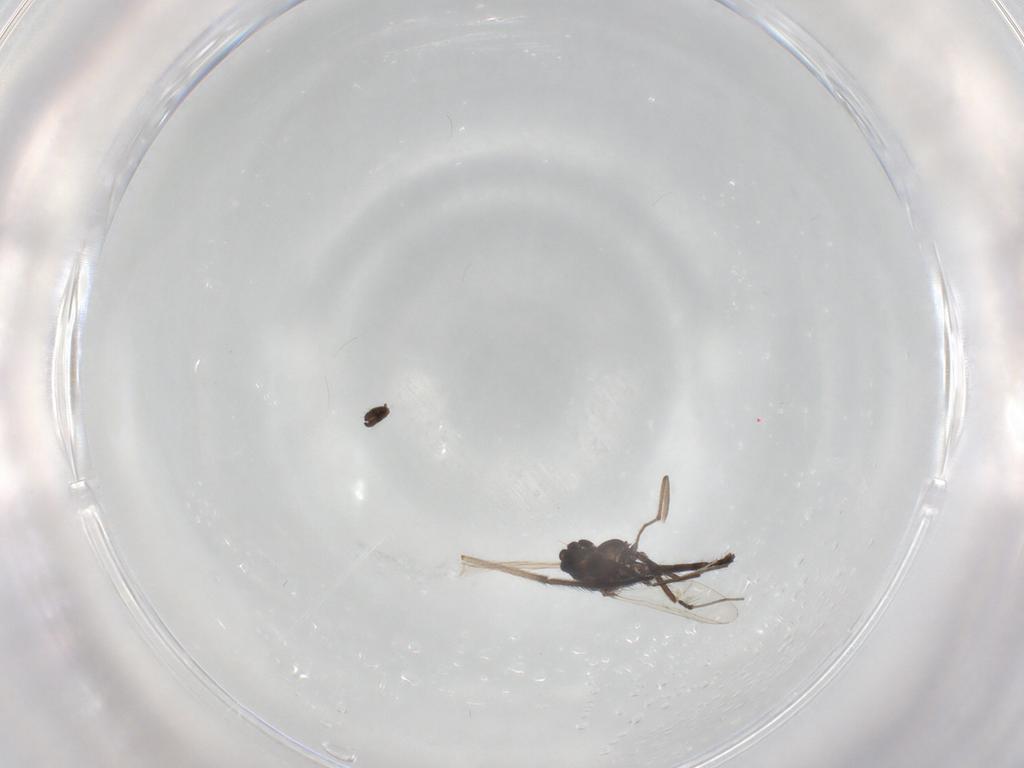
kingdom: Animalia
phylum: Arthropoda
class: Insecta
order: Diptera
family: Chironomidae
